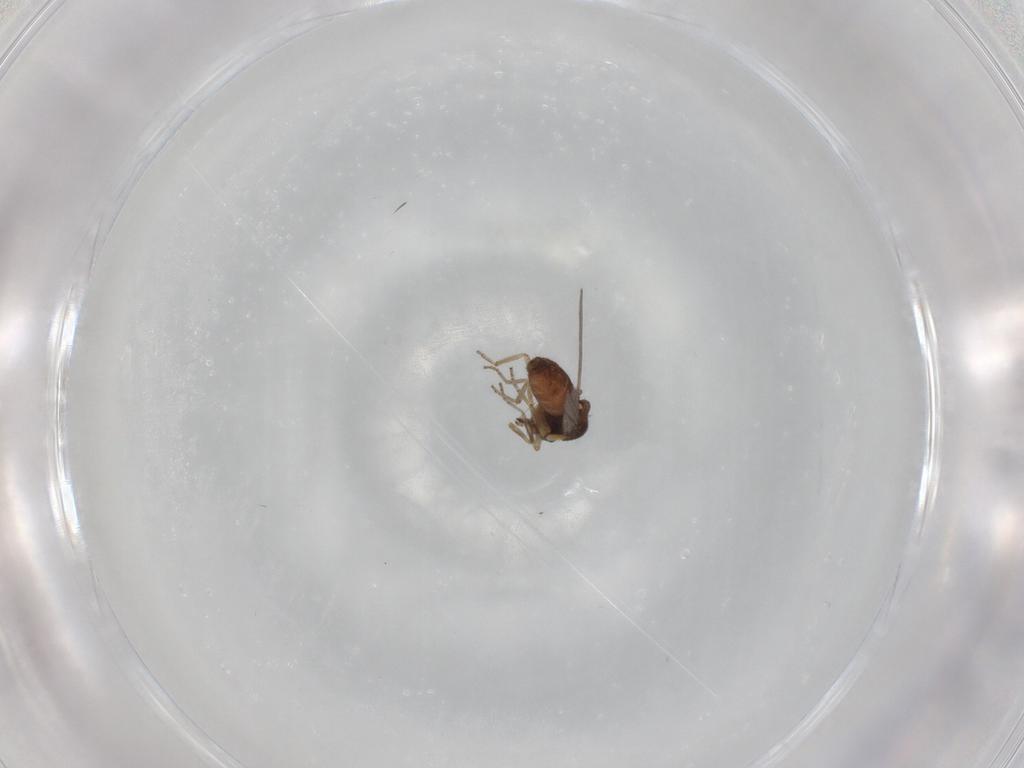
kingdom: Animalia
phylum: Arthropoda
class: Insecta
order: Diptera
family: Ceratopogonidae
